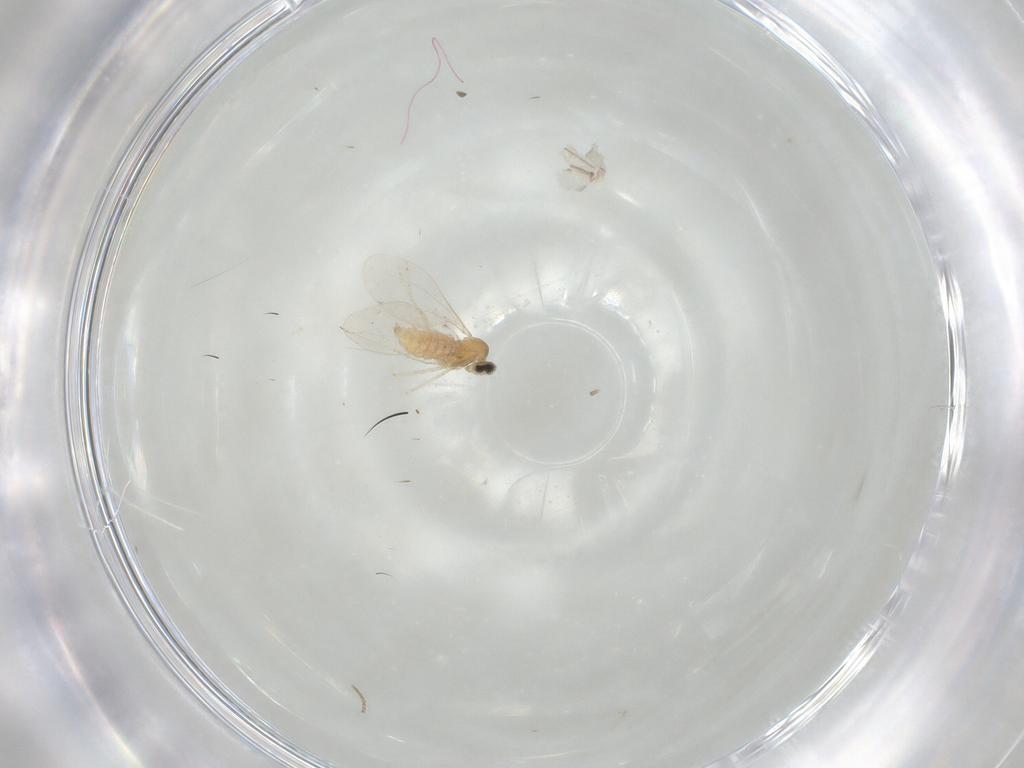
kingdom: Animalia
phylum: Arthropoda
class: Insecta
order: Diptera
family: Cecidomyiidae
